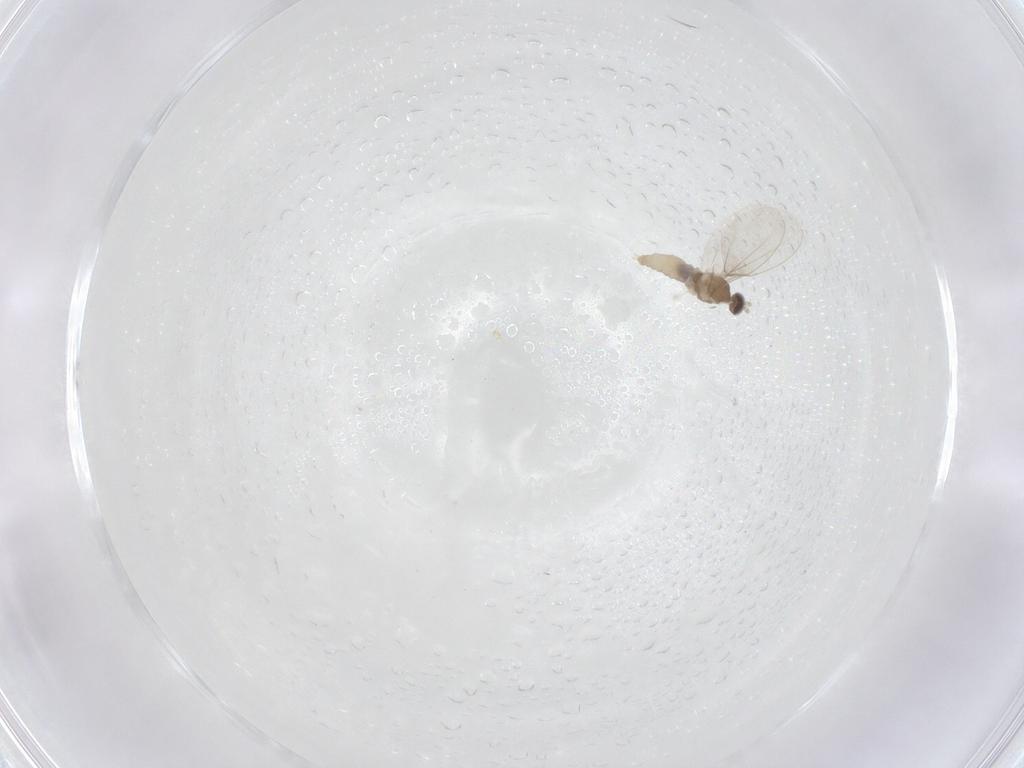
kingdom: Animalia
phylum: Arthropoda
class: Insecta
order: Diptera
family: Cecidomyiidae
